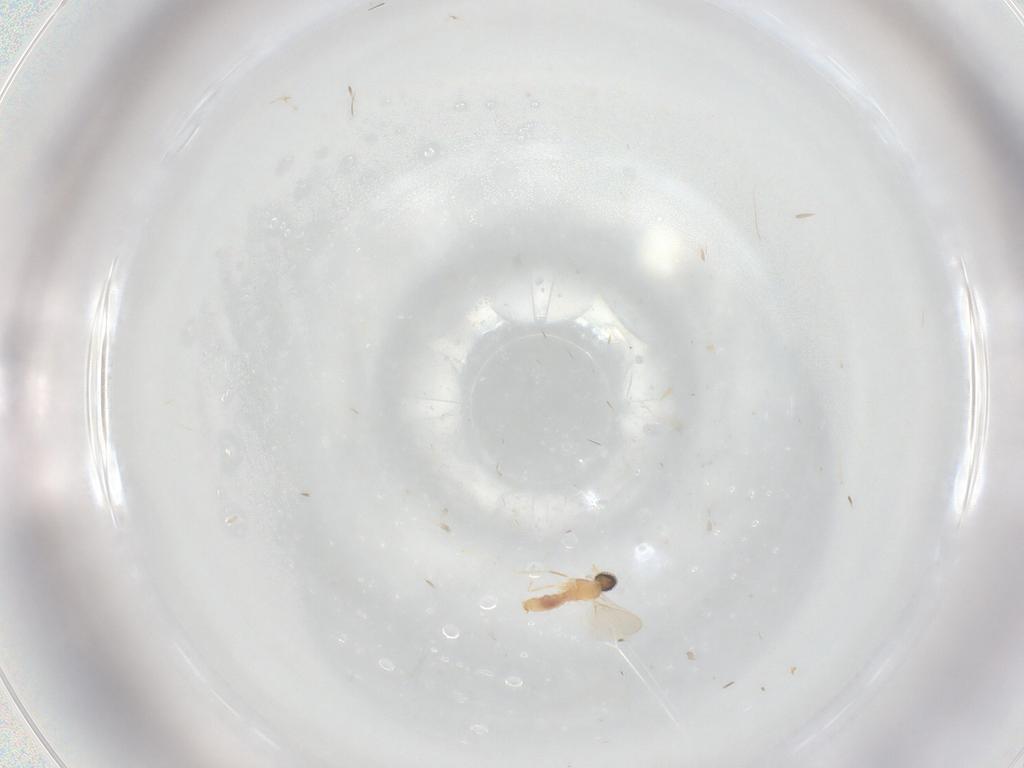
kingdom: Animalia
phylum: Arthropoda
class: Insecta
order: Diptera
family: Cecidomyiidae
